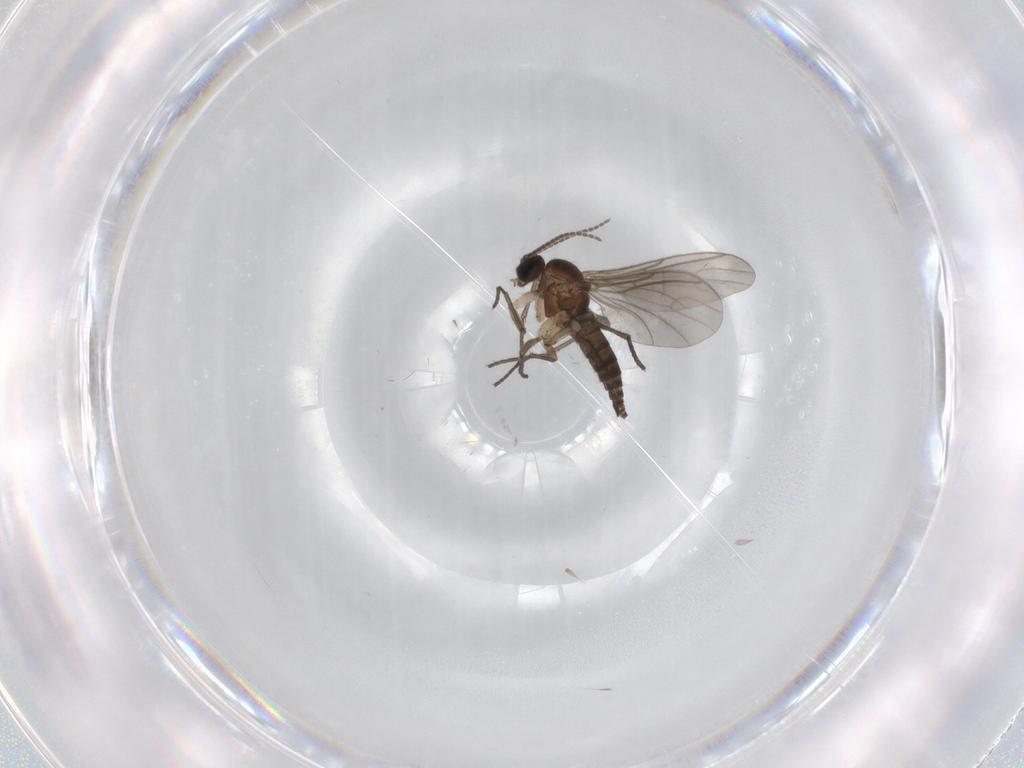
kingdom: Animalia
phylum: Arthropoda
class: Insecta
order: Diptera
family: Sciaridae
